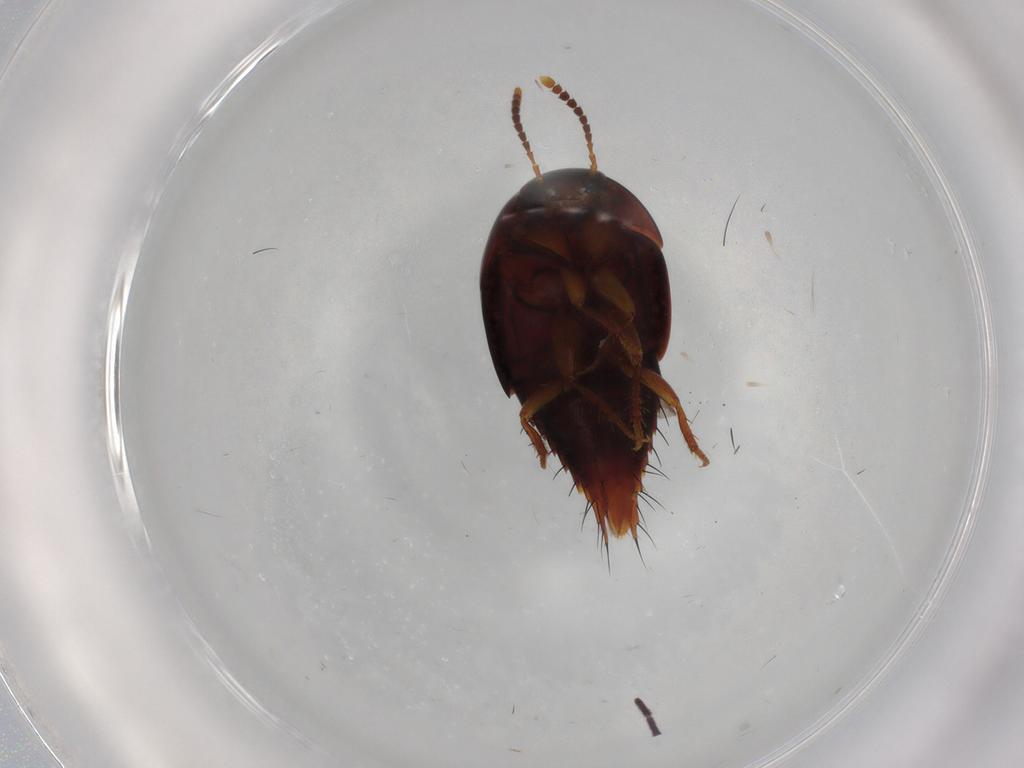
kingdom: Animalia
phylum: Arthropoda
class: Insecta
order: Coleoptera
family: Staphylinidae
